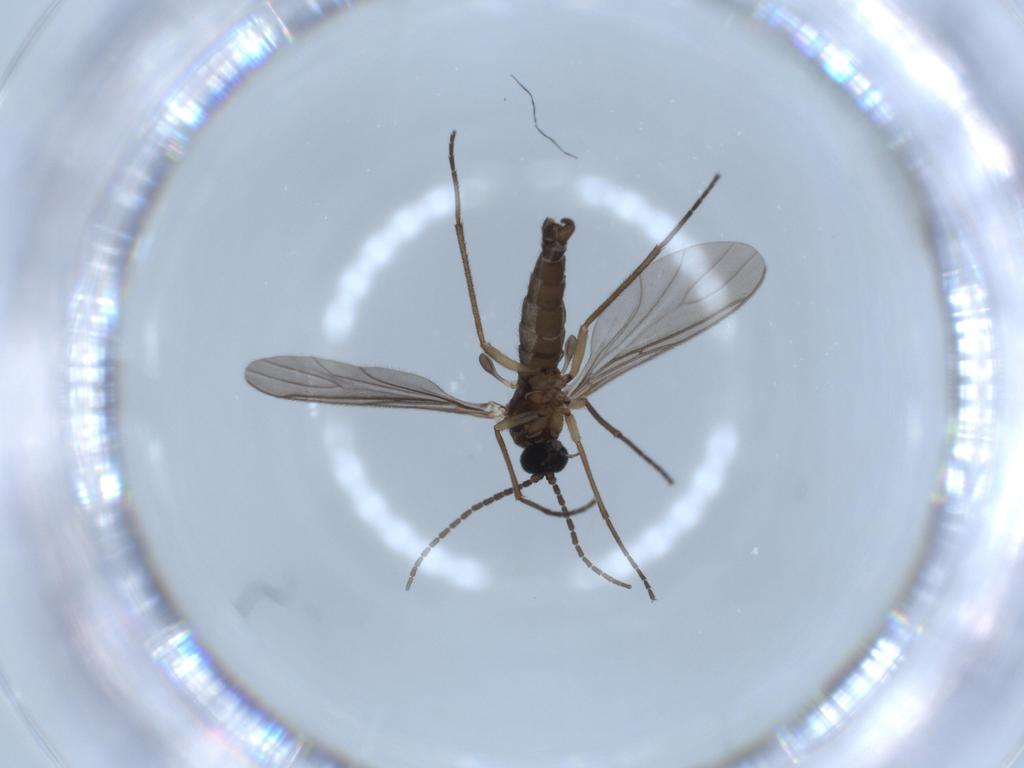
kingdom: Animalia
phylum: Arthropoda
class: Insecta
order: Diptera
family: Sciaridae
